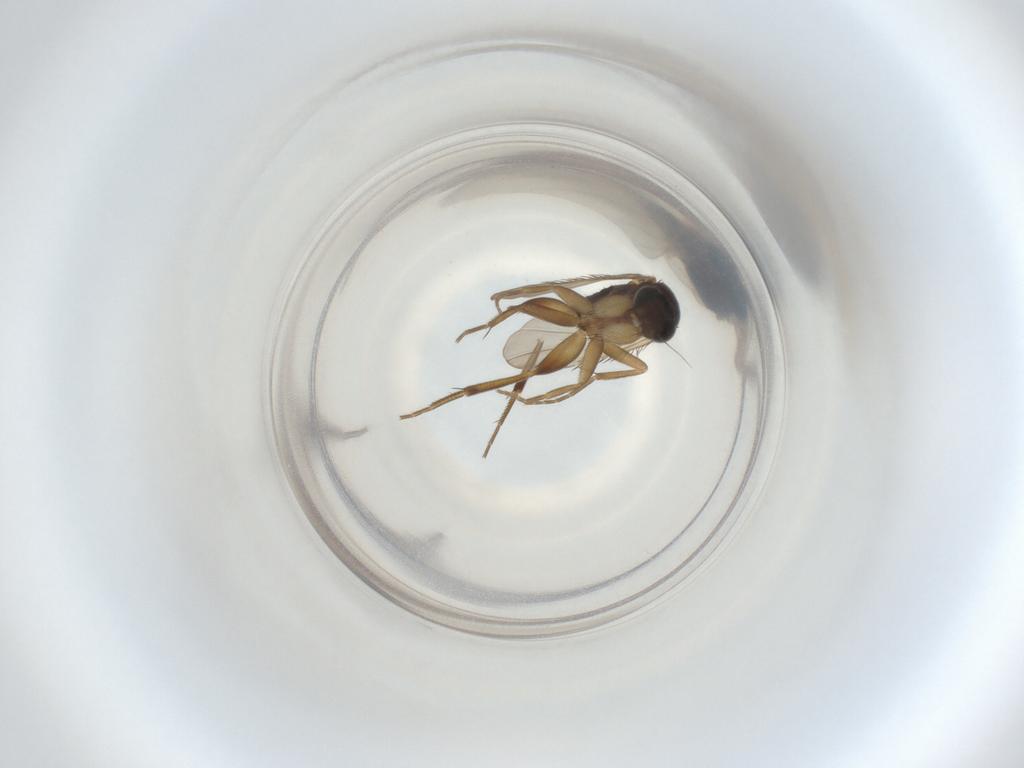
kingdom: Animalia
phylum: Arthropoda
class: Insecta
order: Diptera
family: Phoridae
